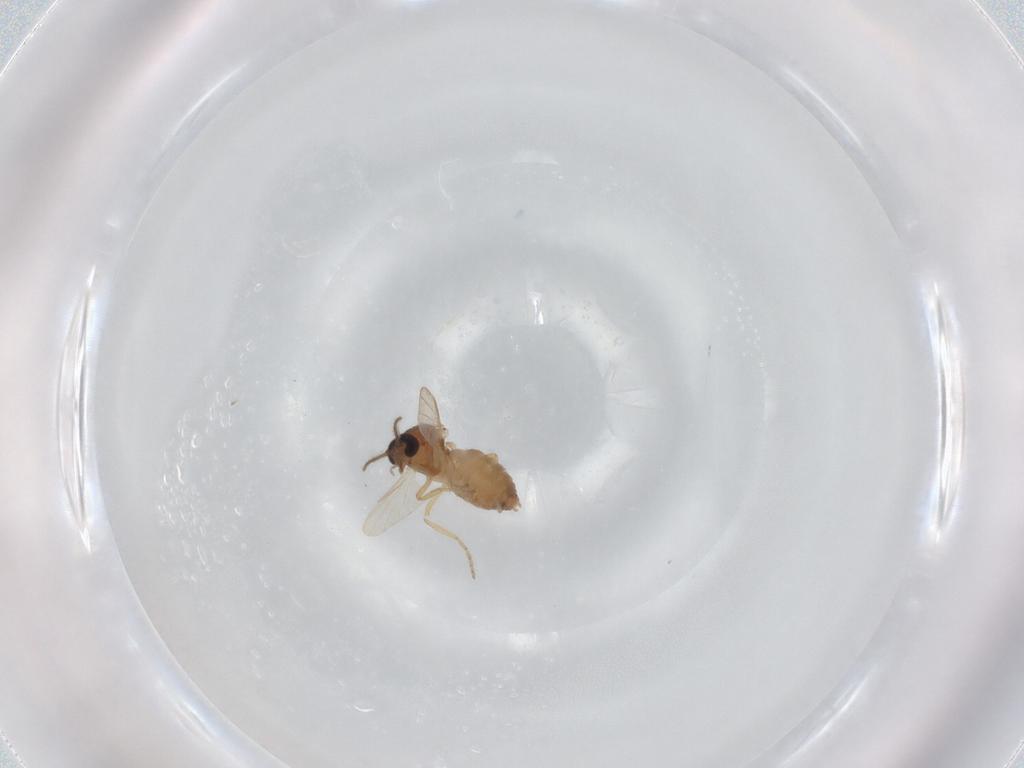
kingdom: Animalia
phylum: Arthropoda
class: Insecta
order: Diptera
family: Ceratopogonidae
